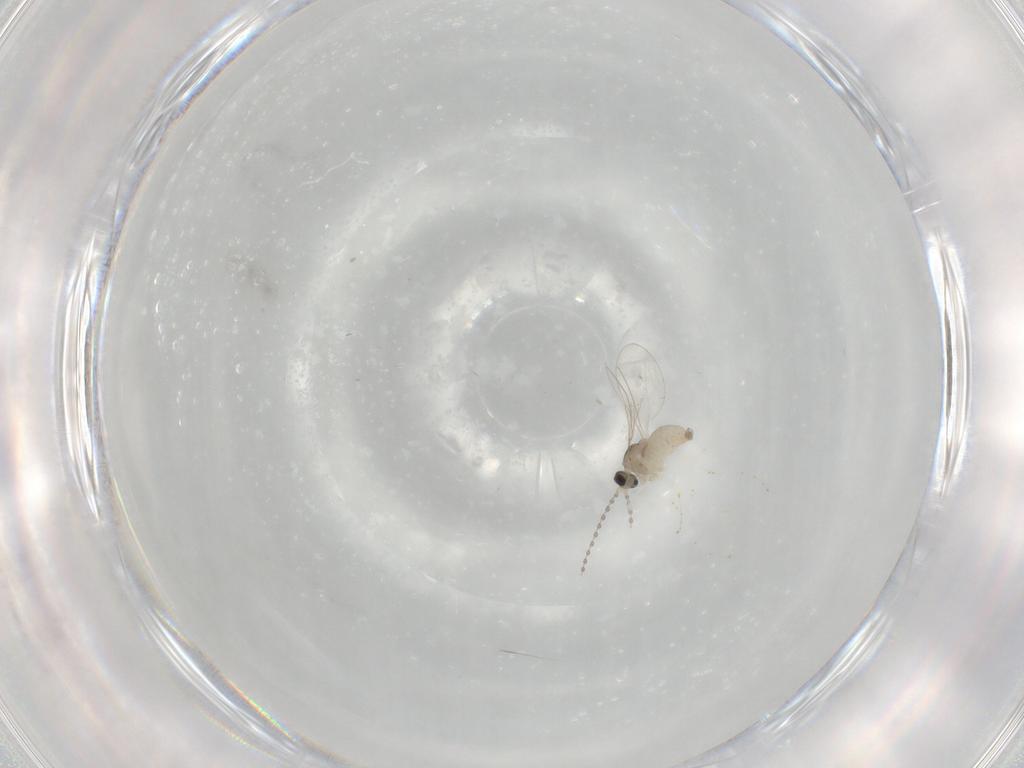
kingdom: Animalia
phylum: Arthropoda
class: Insecta
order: Diptera
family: Cecidomyiidae
